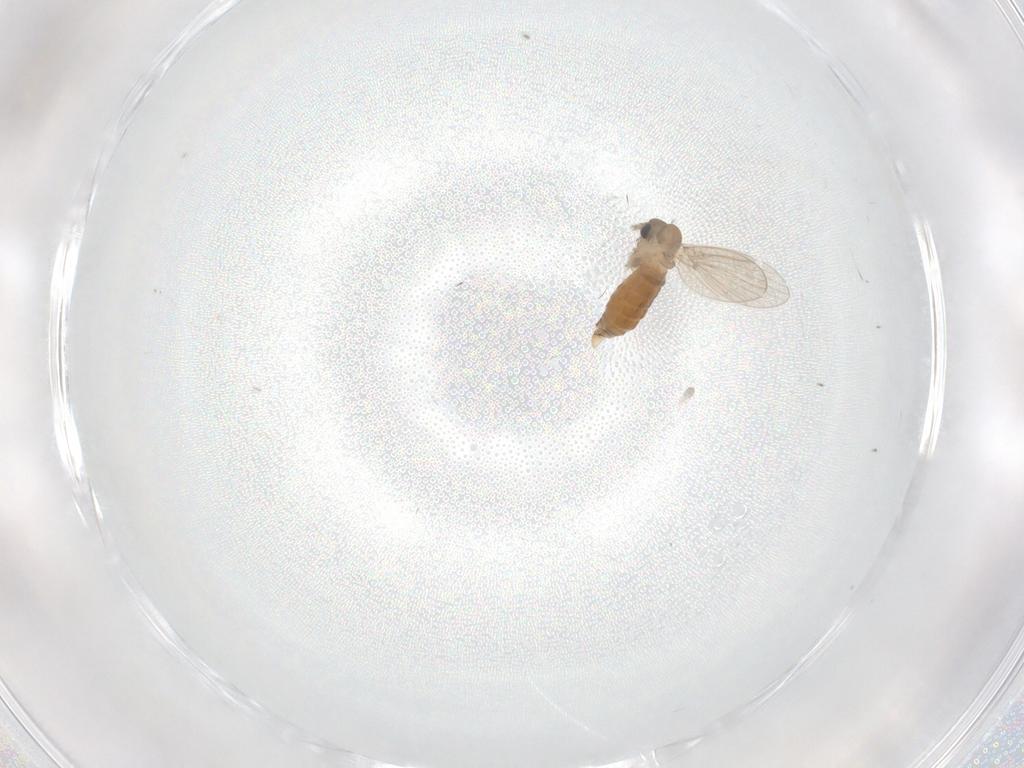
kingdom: Animalia
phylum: Arthropoda
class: Insecta
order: Diptera
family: Psychodidae
